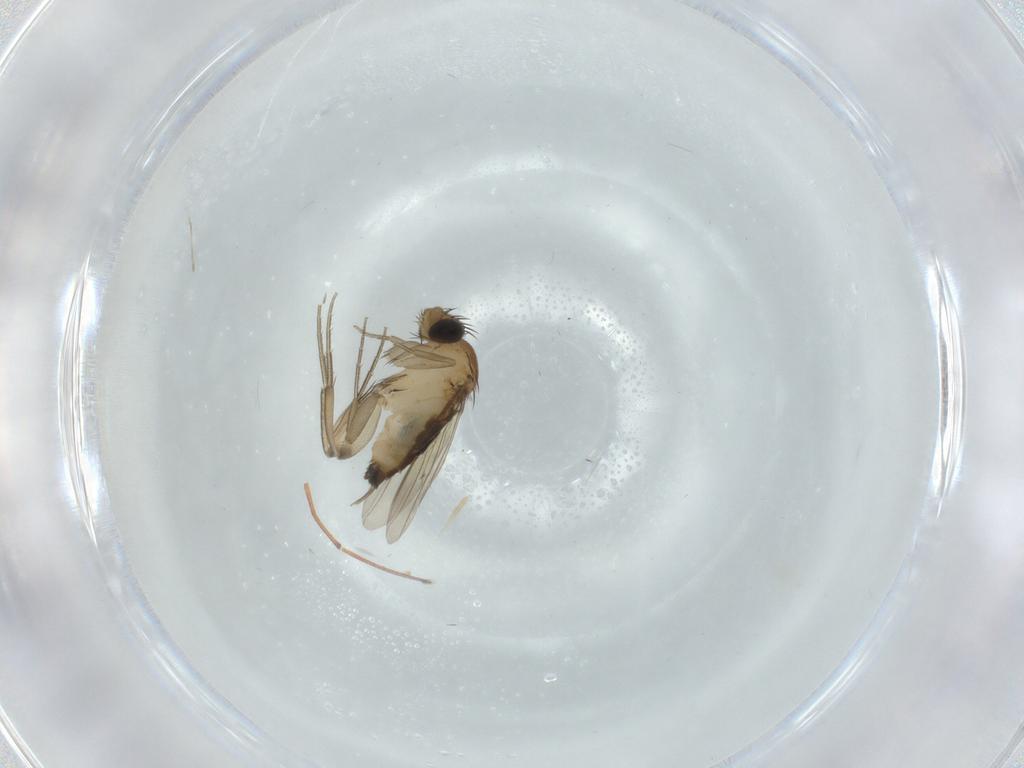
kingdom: Animalia
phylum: Arthropoda
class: Insecta
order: Diptera
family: Phoridae
